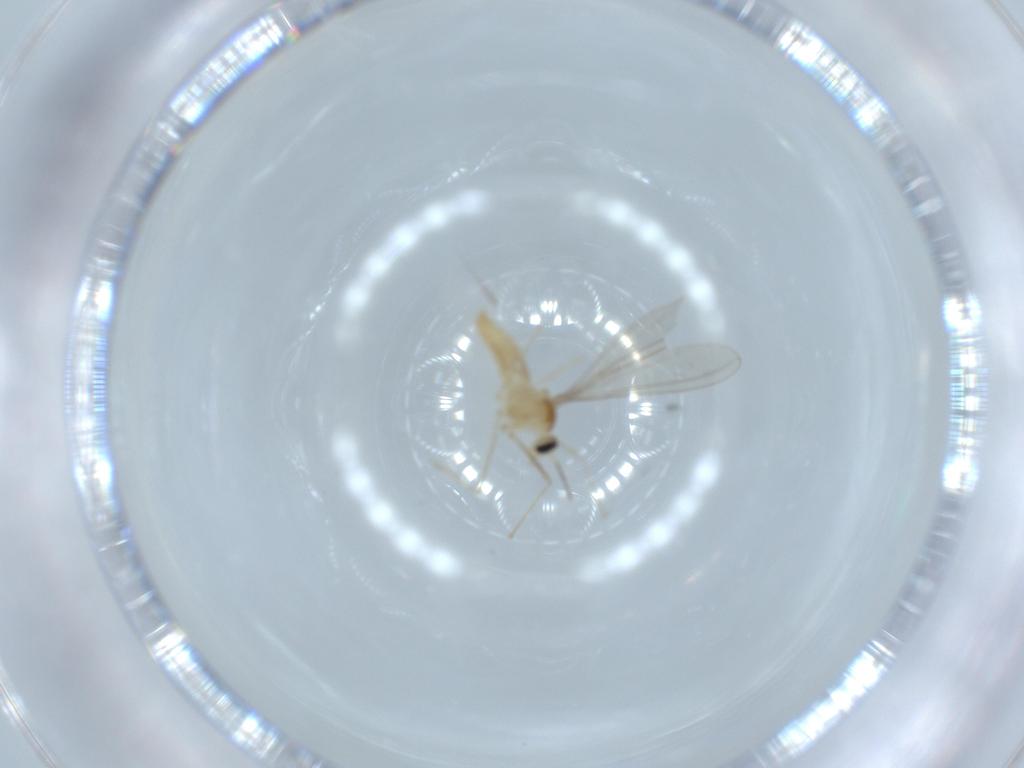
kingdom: Animalia
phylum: Arthropoda
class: Insecta
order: Diptera
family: Cecidomyiidae
